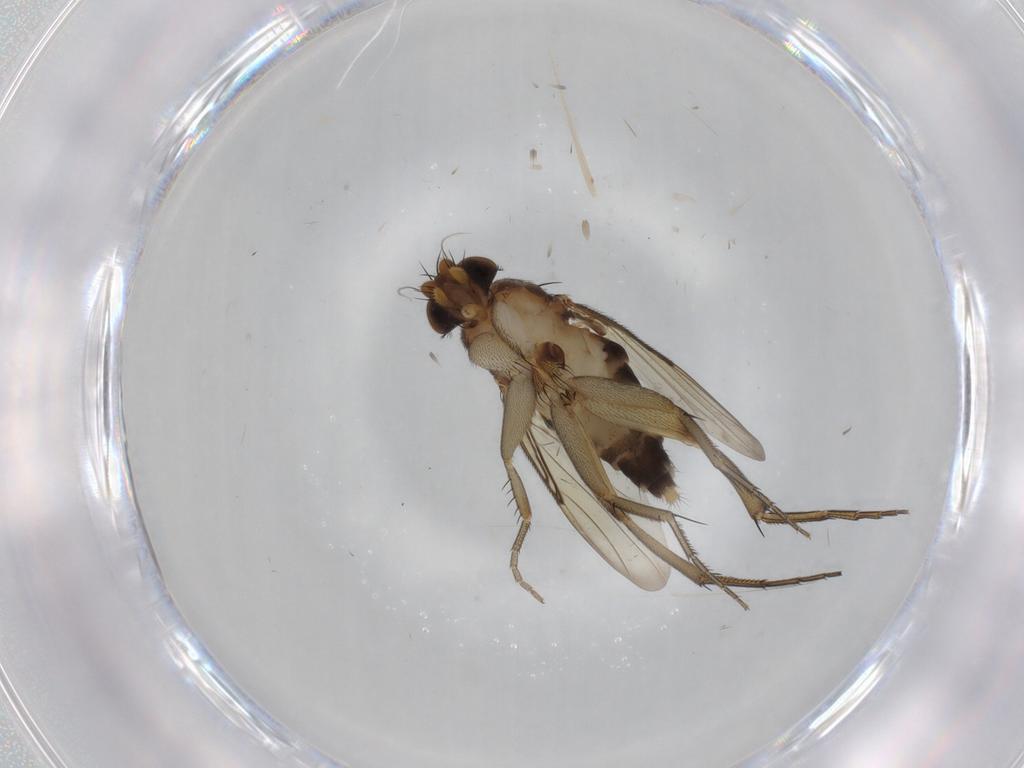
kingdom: Animalia
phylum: Arthropoda
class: Insecta
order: Diptera
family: Phoridae
